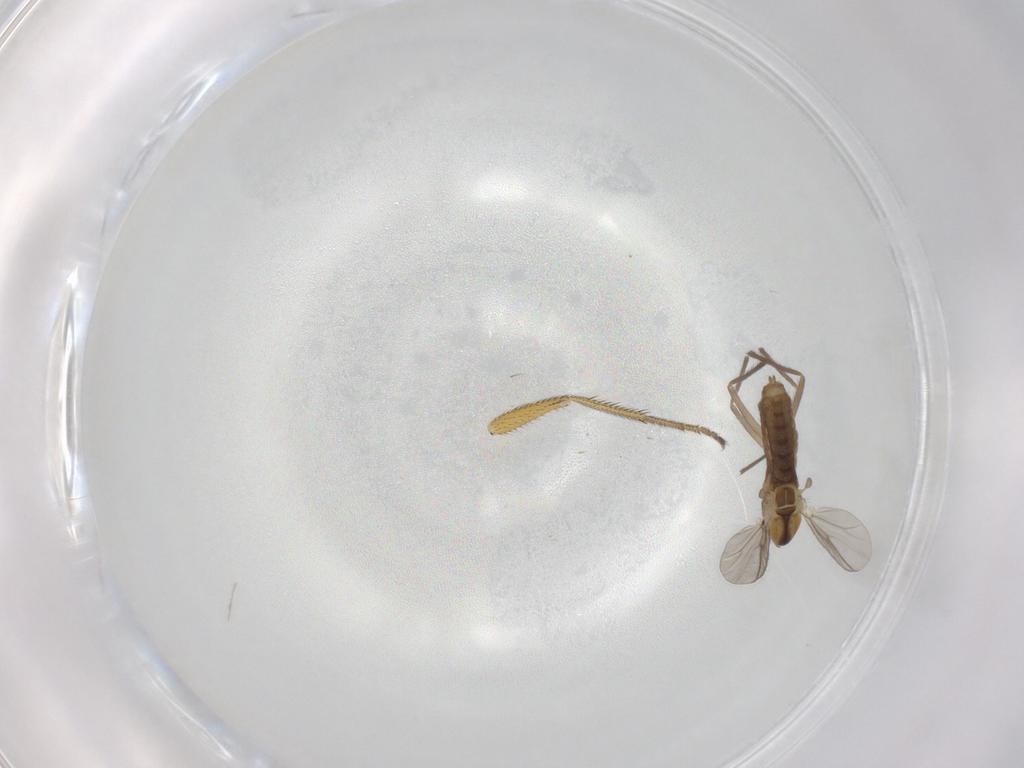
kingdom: Animalia
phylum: Arthropoda
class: Insecta
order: Diptera
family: Chironomidae
